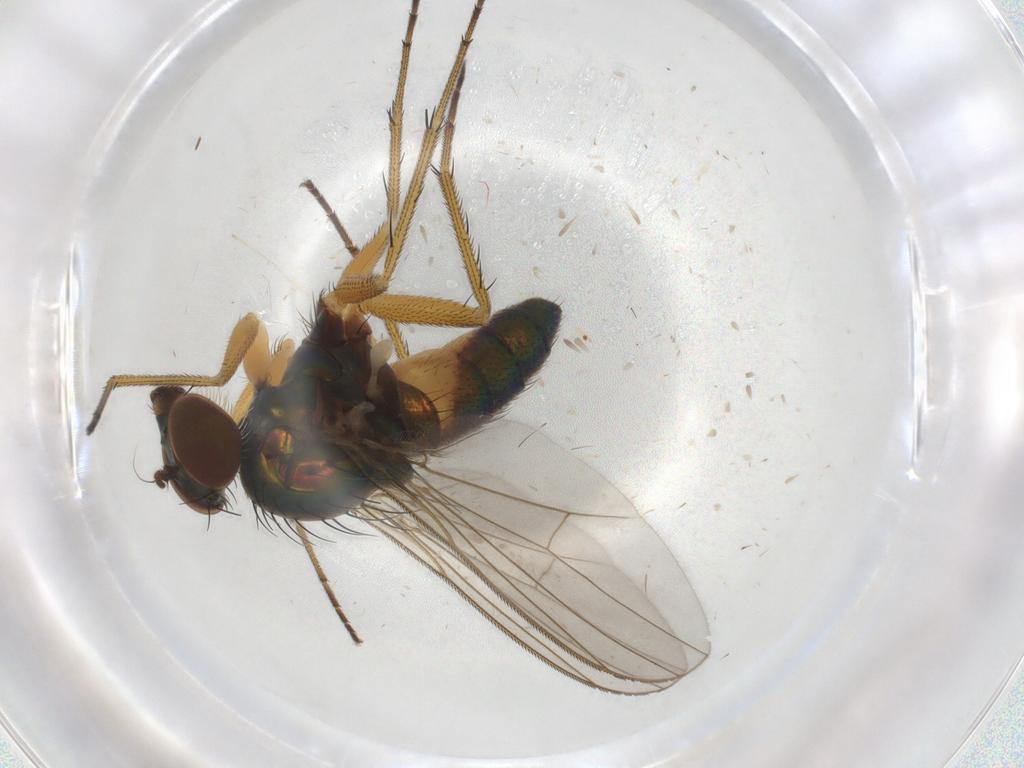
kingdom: Animalia
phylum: Arthropoda
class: Insecta
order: Diptera
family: Cecidomyiidae
